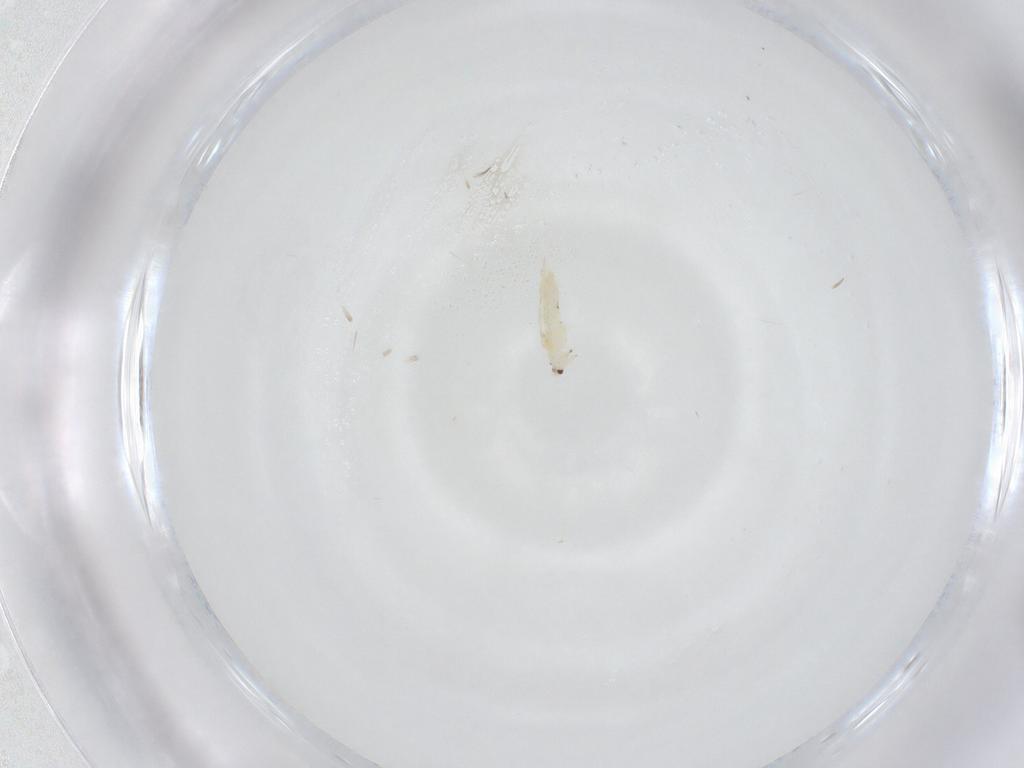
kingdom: Animalia
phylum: Arthropoda
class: Insecta
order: Thysanoptera
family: Thripidae
